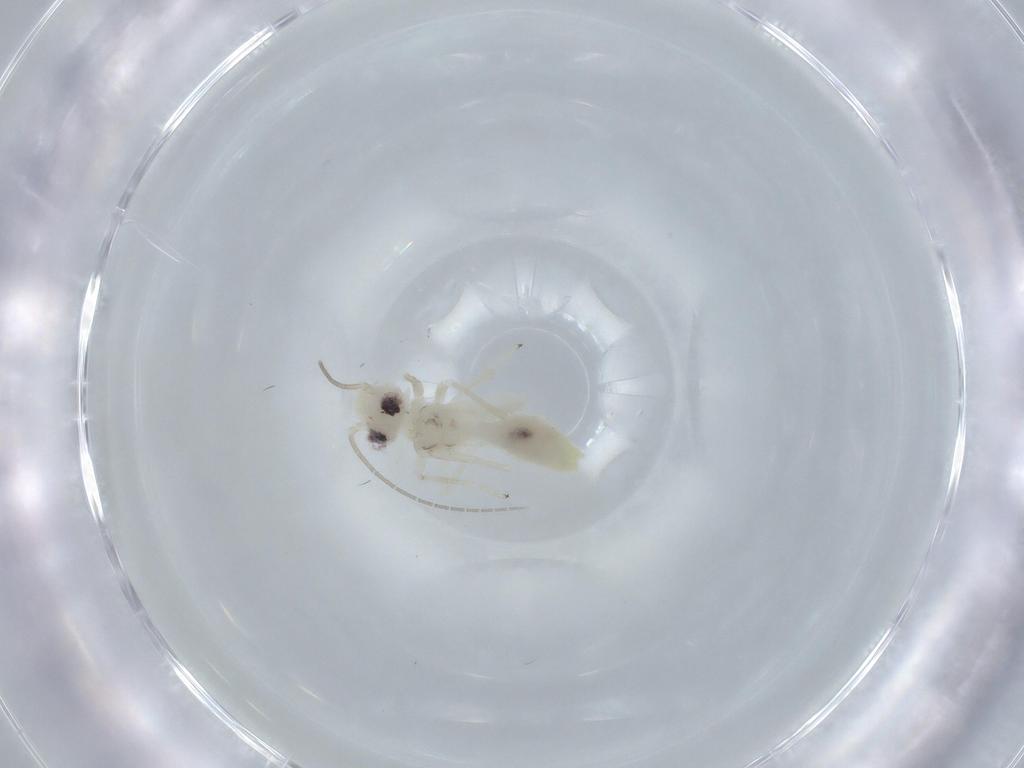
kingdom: Animalia
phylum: Arthropoda
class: Insecta
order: Psocodea
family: Caeciliusidae
